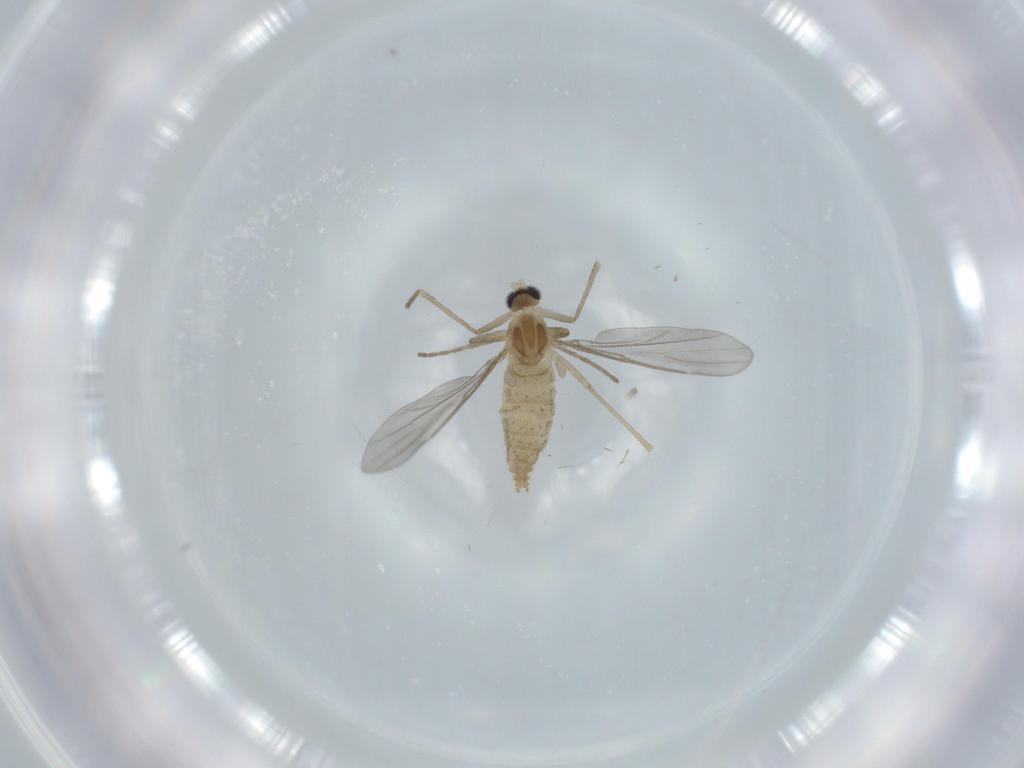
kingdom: Animalia
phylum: Arthropoda
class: Insecta
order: Diptera
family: Cecidomyiidae
